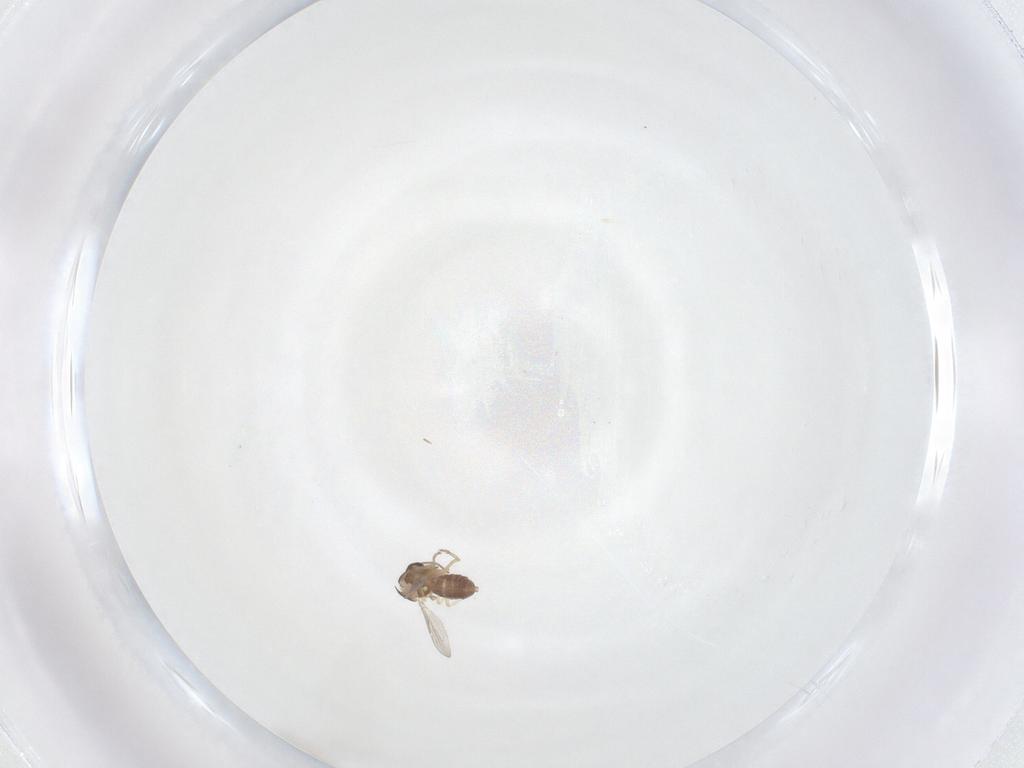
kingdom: Animalia
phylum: Arthropoda
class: Insecta
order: Diptera
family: Ceratopogonidae
